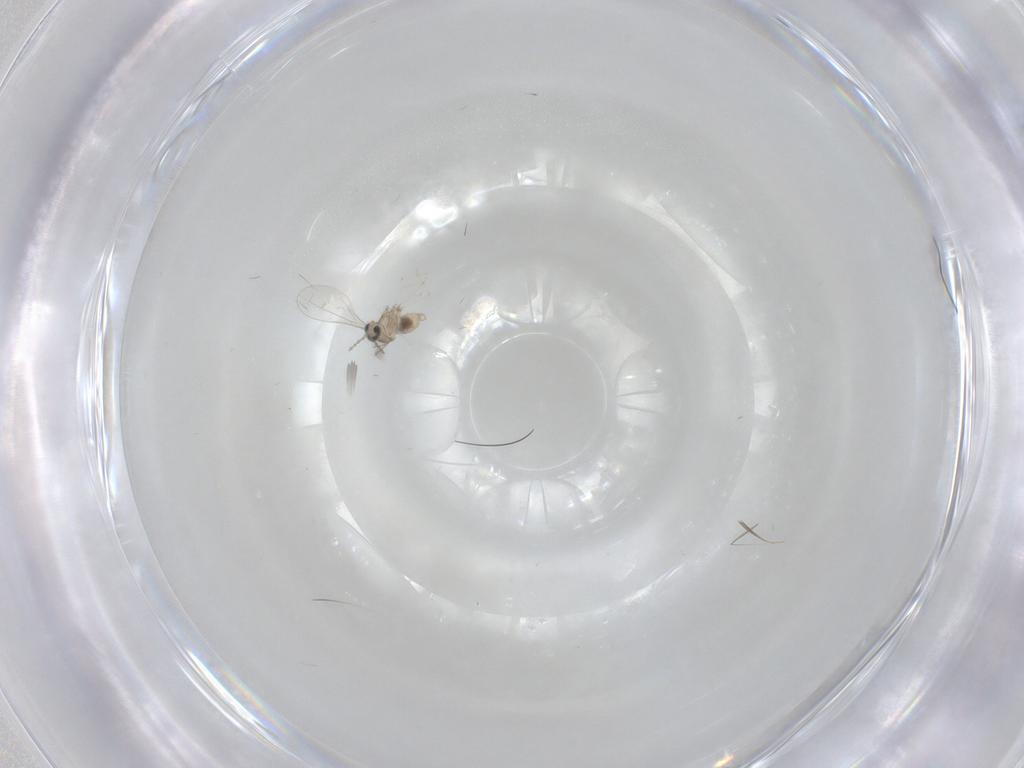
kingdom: Animalia
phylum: Arthropoda
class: Insecta
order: Diptera
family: Cecidomyiidae
